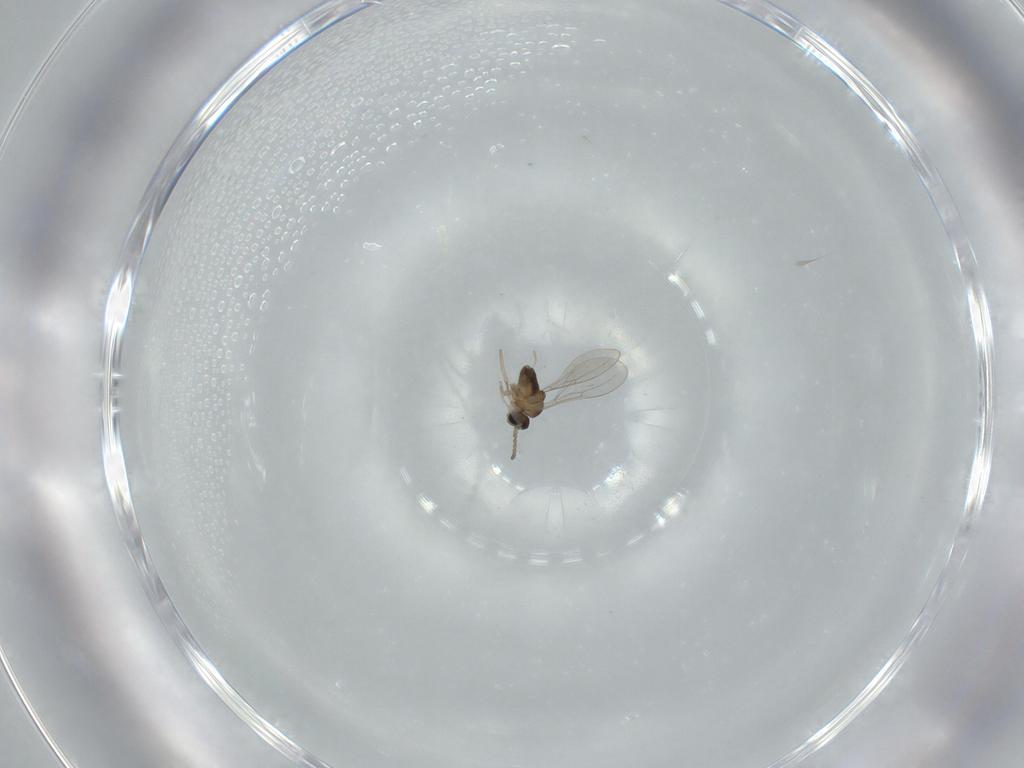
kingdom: Animalia
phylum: Arthropoda
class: Insecta
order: Diptera
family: Cecidomyiidae
